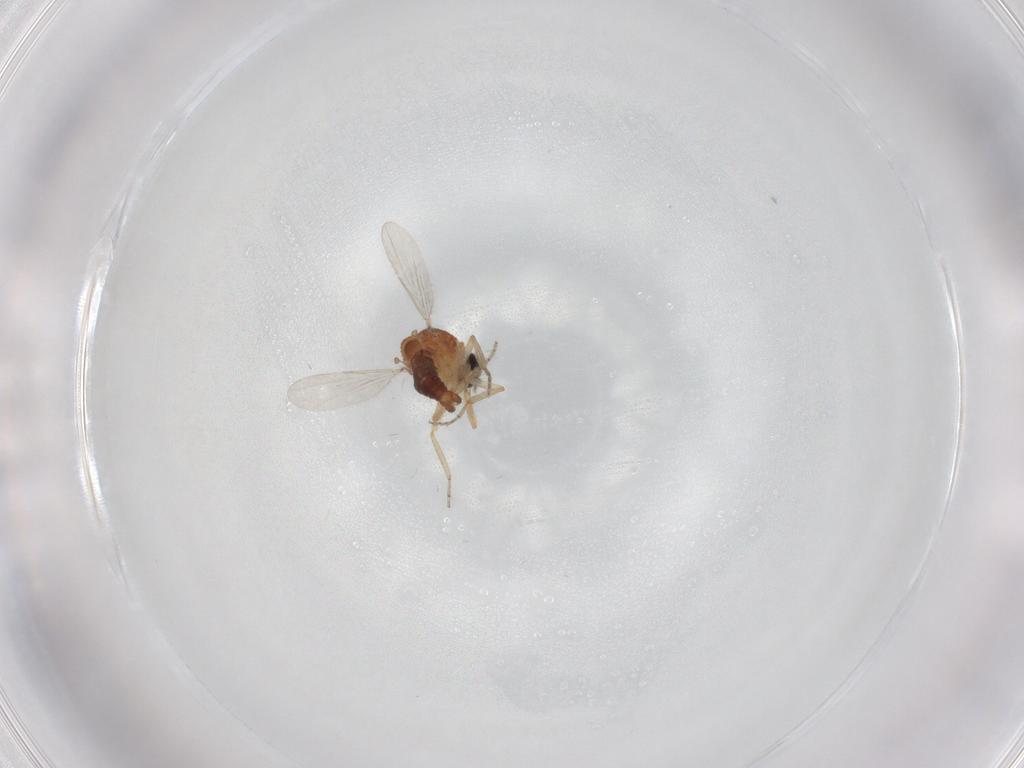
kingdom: Animalia
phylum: Arthropoda
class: Insecta
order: Diptera
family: Ceratopogonidae
